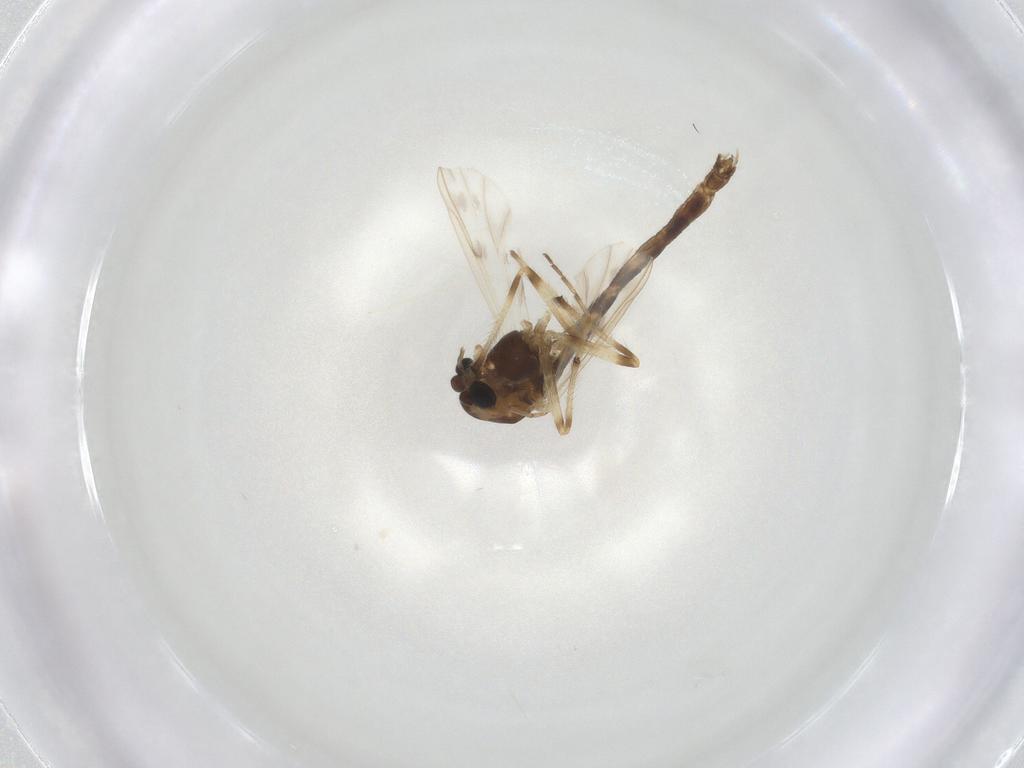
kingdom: Animalia
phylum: Arthropoda
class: Insecta
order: Diptera
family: Chironomidae
